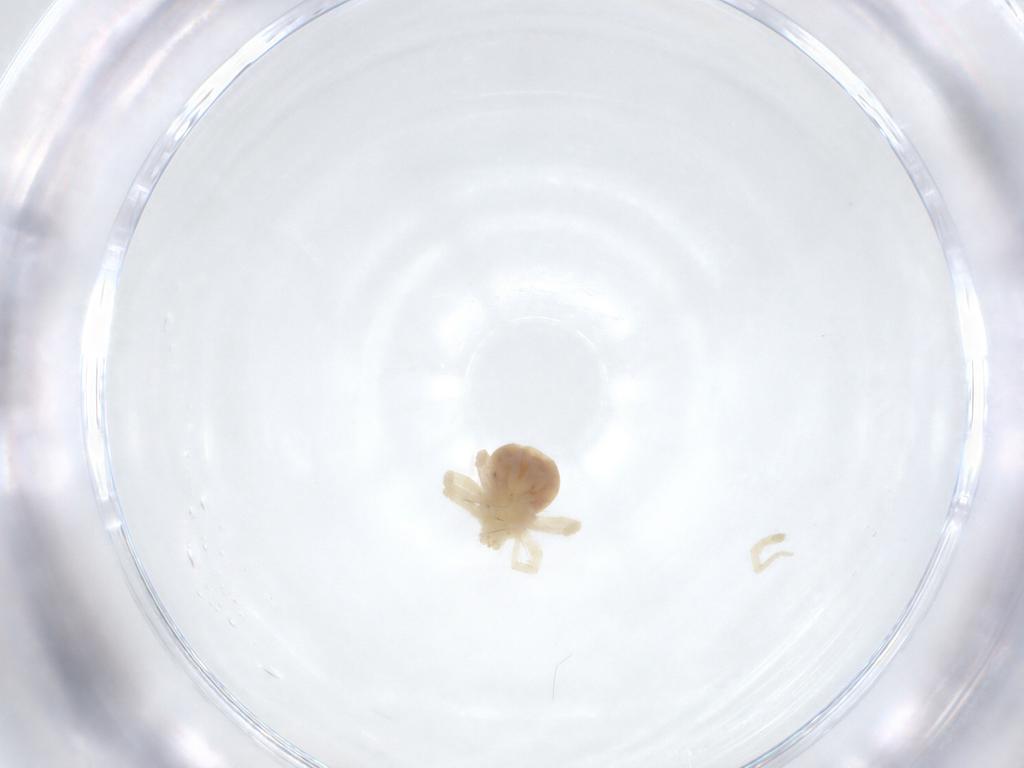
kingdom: Animalia
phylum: Arthropoda
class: Arachnida
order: Trombidiformes
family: Anystidae
